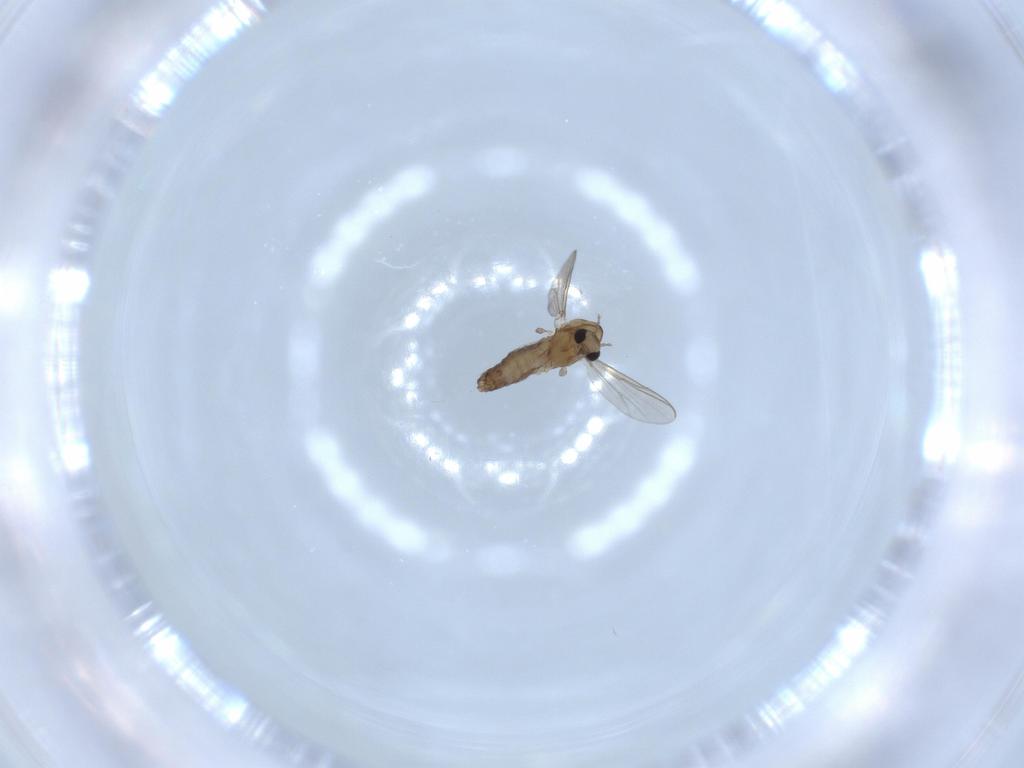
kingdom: Animalia
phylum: Arthropoda
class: Insecta
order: Diptera
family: Chironomidae
